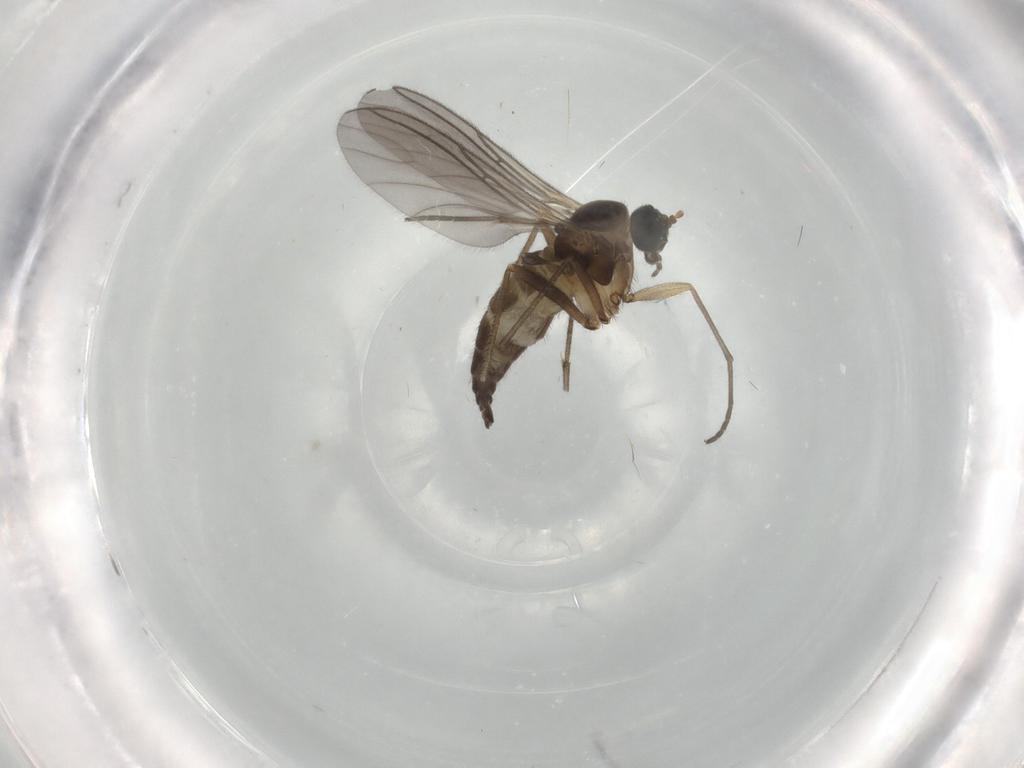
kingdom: Animalia
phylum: Arthropoda
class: Insecta
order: Diptera
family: Sciaridae
